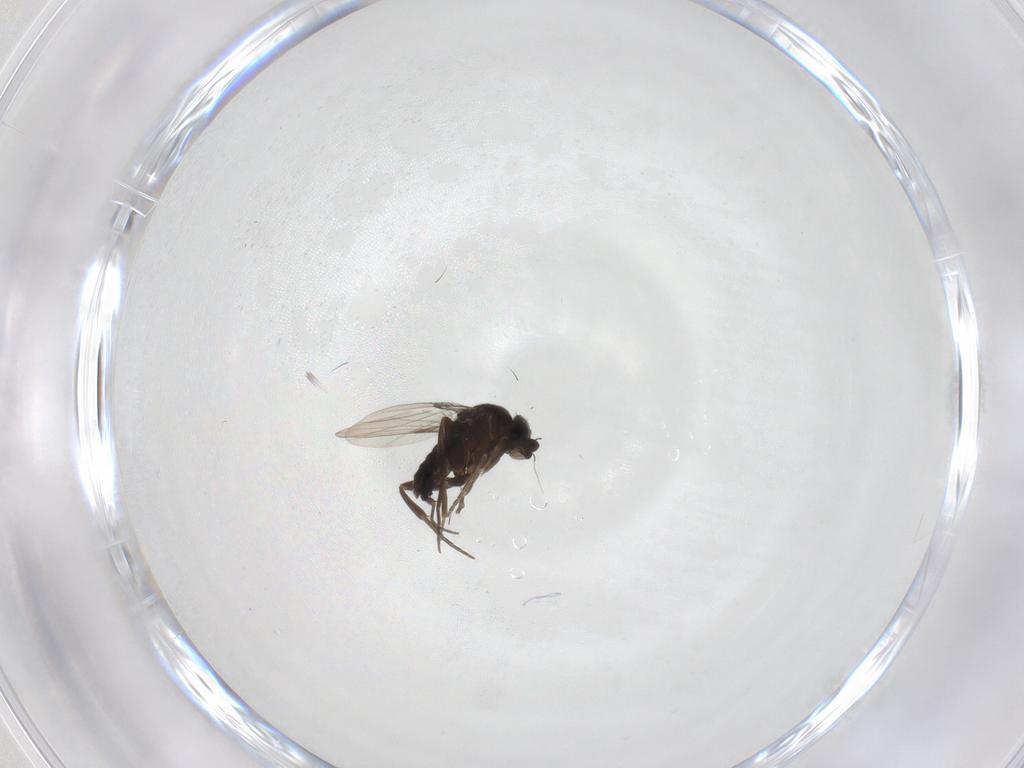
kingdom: Animalia
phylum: Arthropoda
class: Insecta
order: Diptera
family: Heleomyzidae
